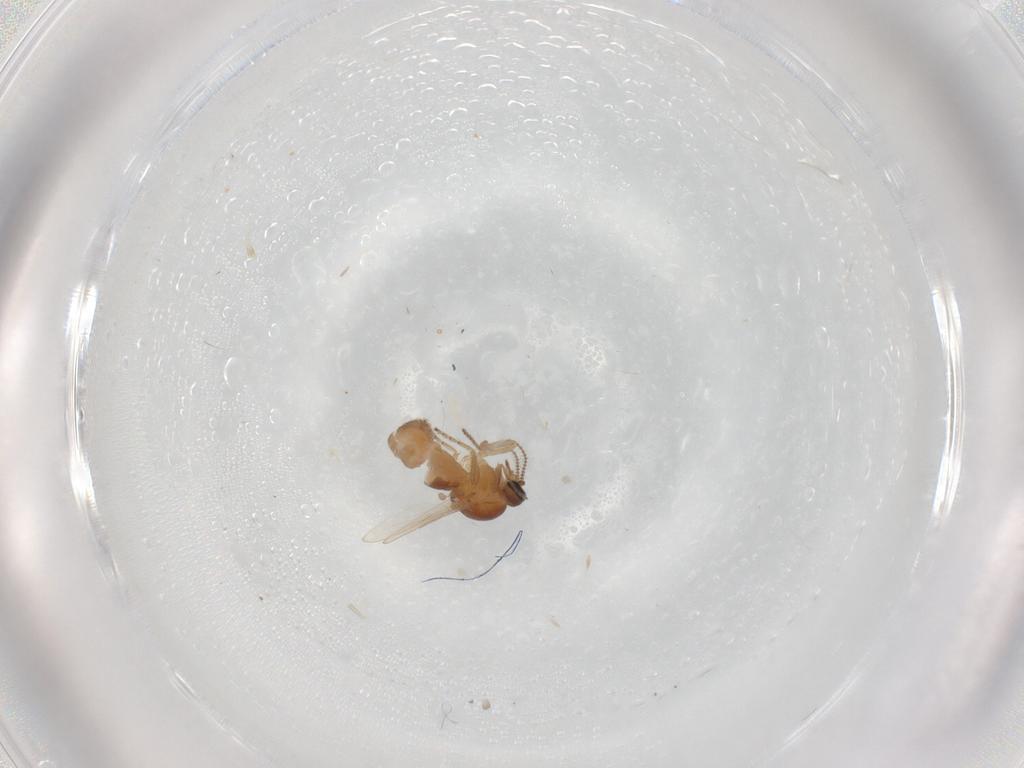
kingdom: Animalia
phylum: Arthropoda
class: Insecta
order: Diptera
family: Ceratopogonidae
